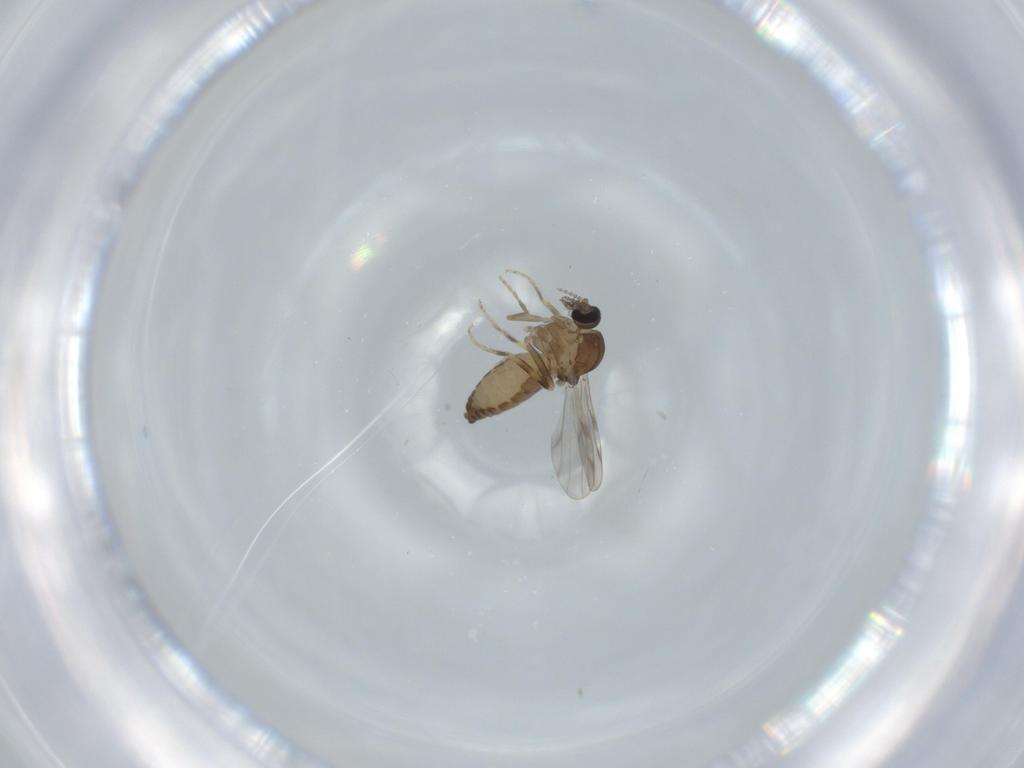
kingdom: Animalia
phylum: Arthropoda
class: Insecta
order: Diptera
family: Ceratopogonidae
